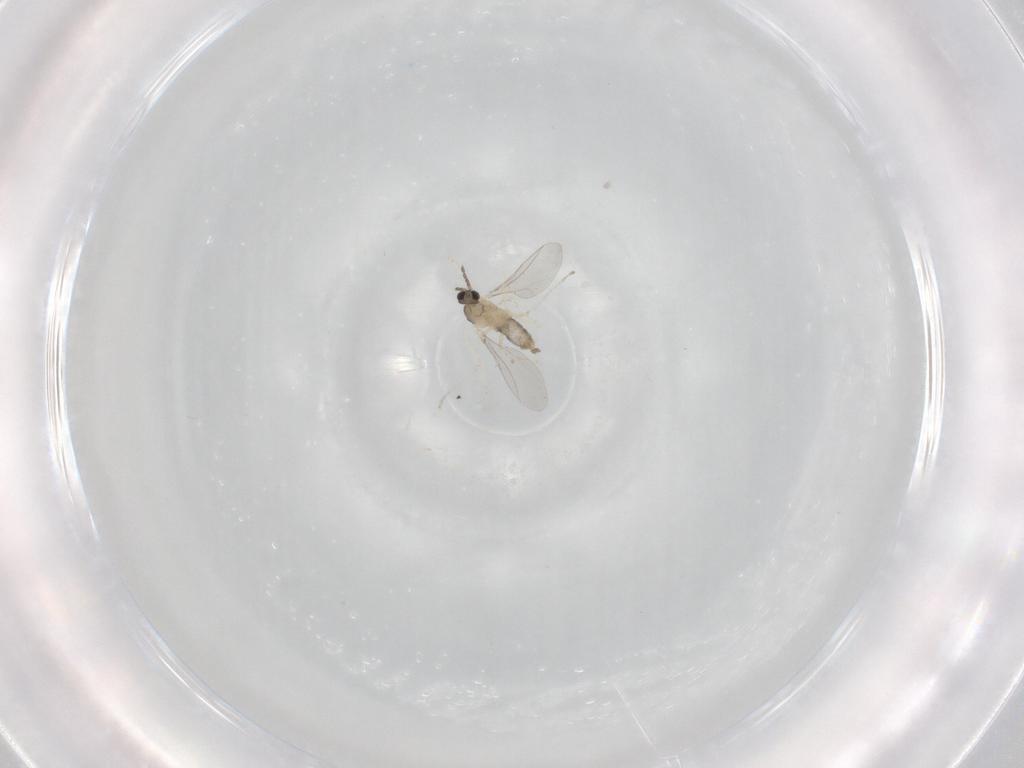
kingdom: Animalia
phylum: Arthropoda
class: Insecta
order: Diptera
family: Cecidomyiidae
